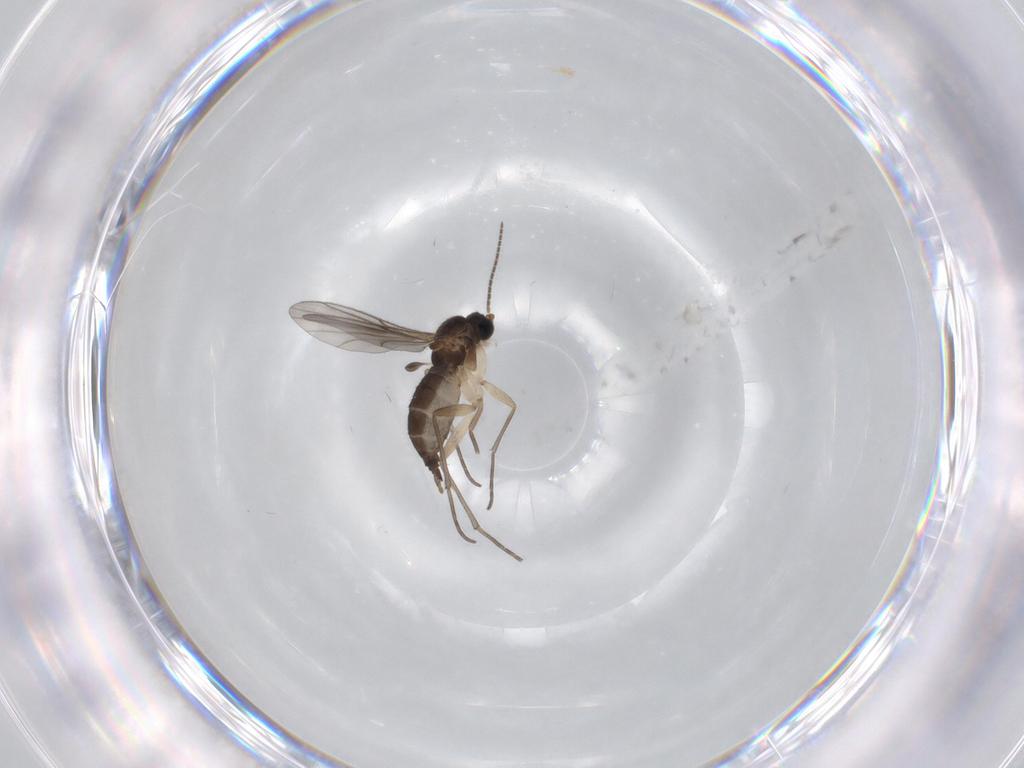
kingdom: Animalia
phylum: Arthropoda
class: Insecta
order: Diptera
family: Sciaridae
